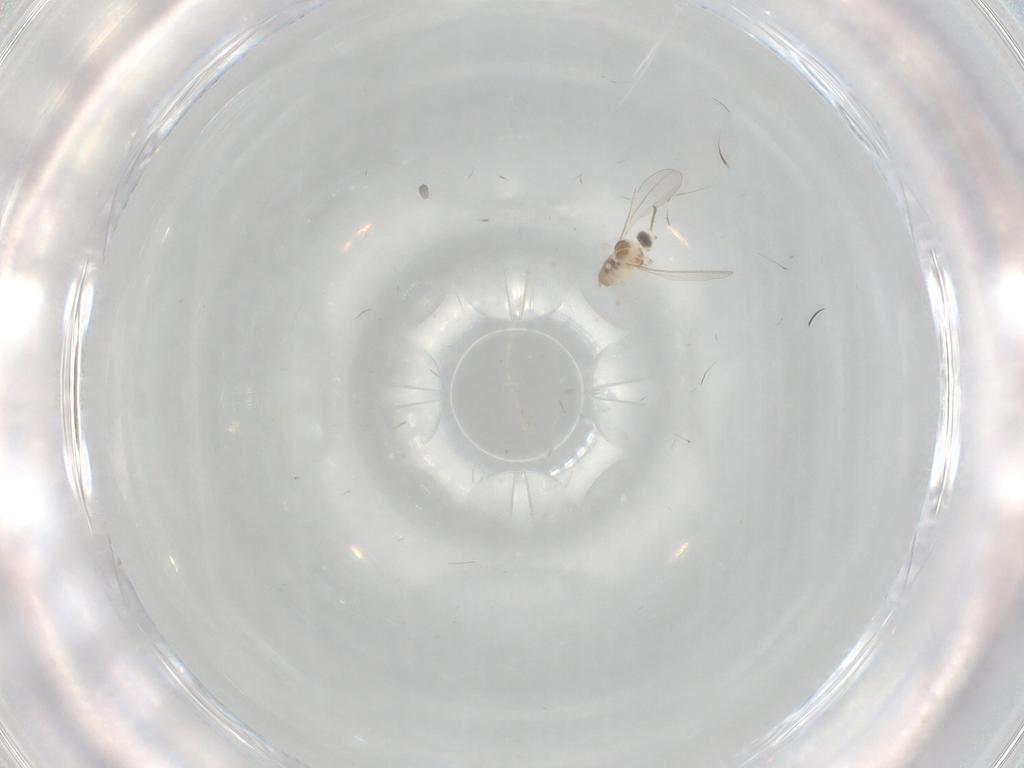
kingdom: Animalia
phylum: Arthropoda
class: Insecta
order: Diptera
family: Cecidomyiidae
